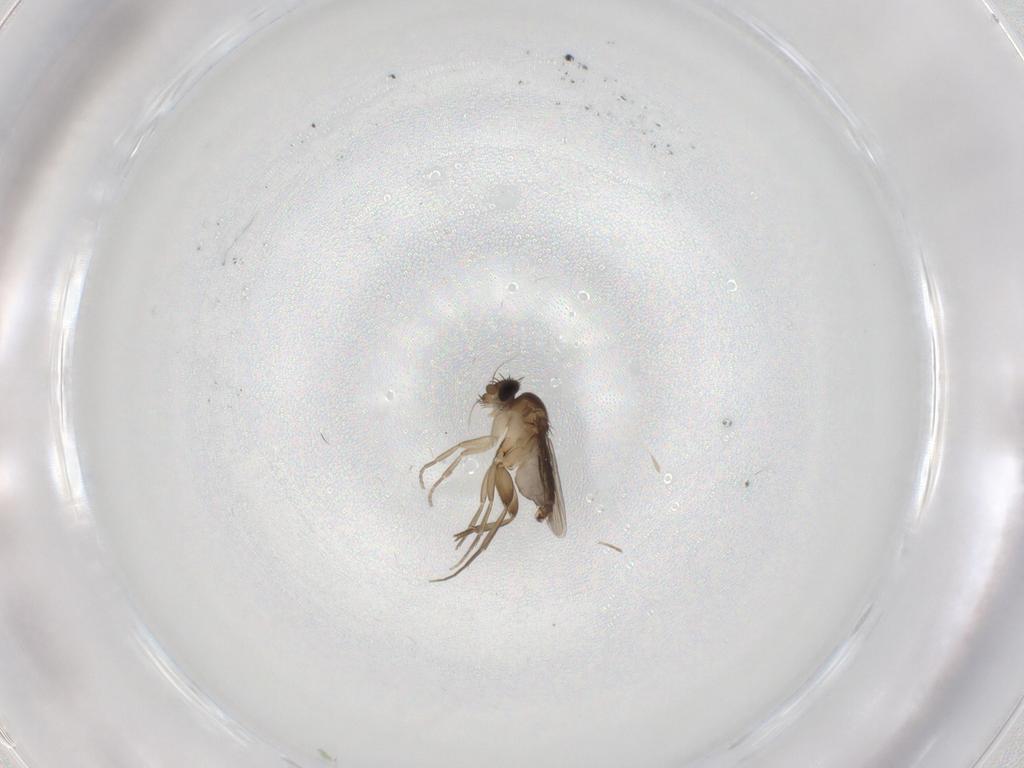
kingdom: Animalia
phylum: Arthropoda
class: Insecta
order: Diptera
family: Phoridae
